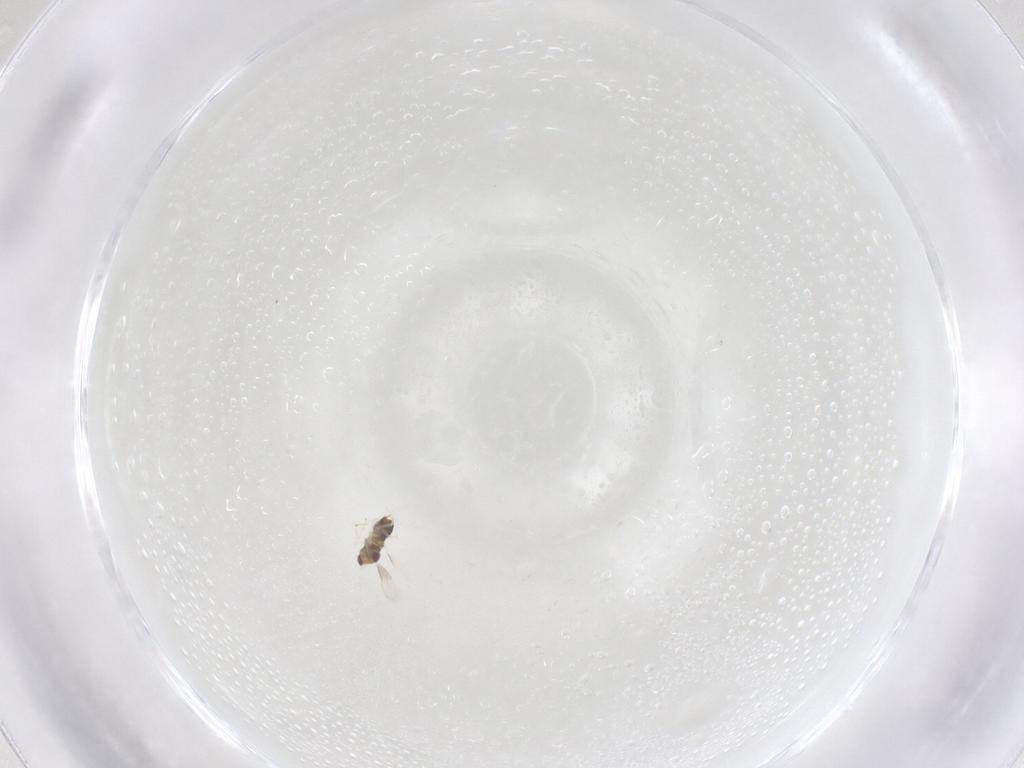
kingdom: Animalia
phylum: Arthropoda
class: Insecta
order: Hymenoptera
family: Aphelinidae
